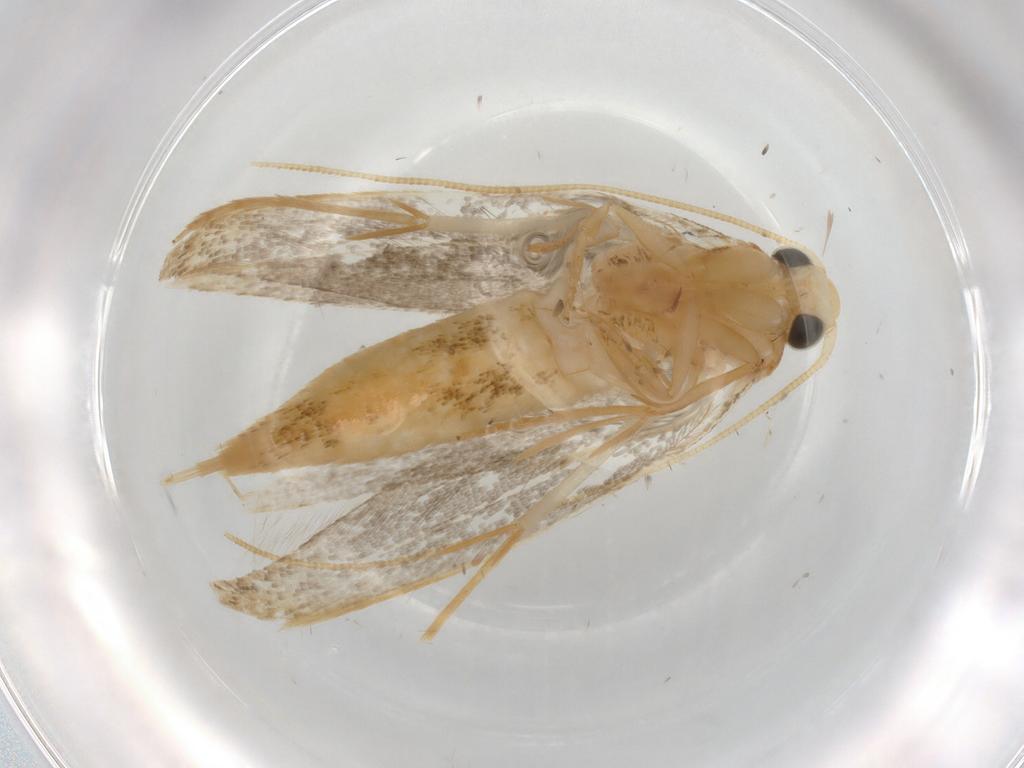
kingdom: Animalia
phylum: Arthropoda
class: Insecta
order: Lepidoptera
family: Tineidae
